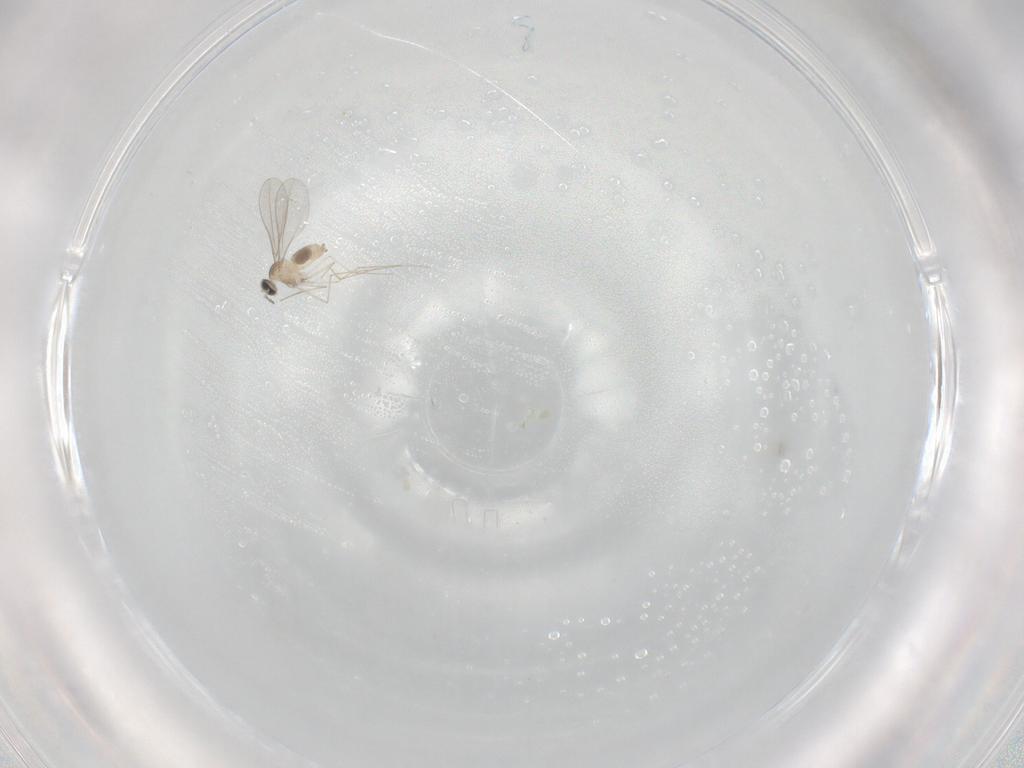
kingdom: Animalia
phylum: Arthropoda
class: Insecta
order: Diptera
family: Cecidomyiidae
